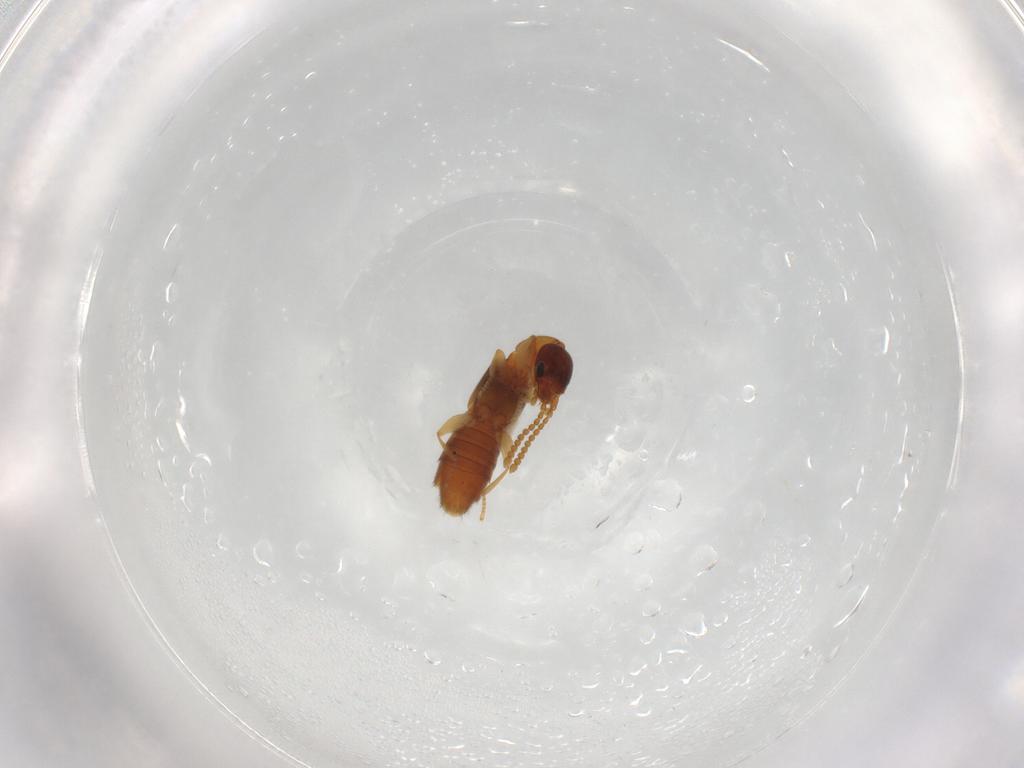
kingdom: Animalia
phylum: Arthropoda
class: Insecta
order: Coleoptera
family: Staphylinidae
